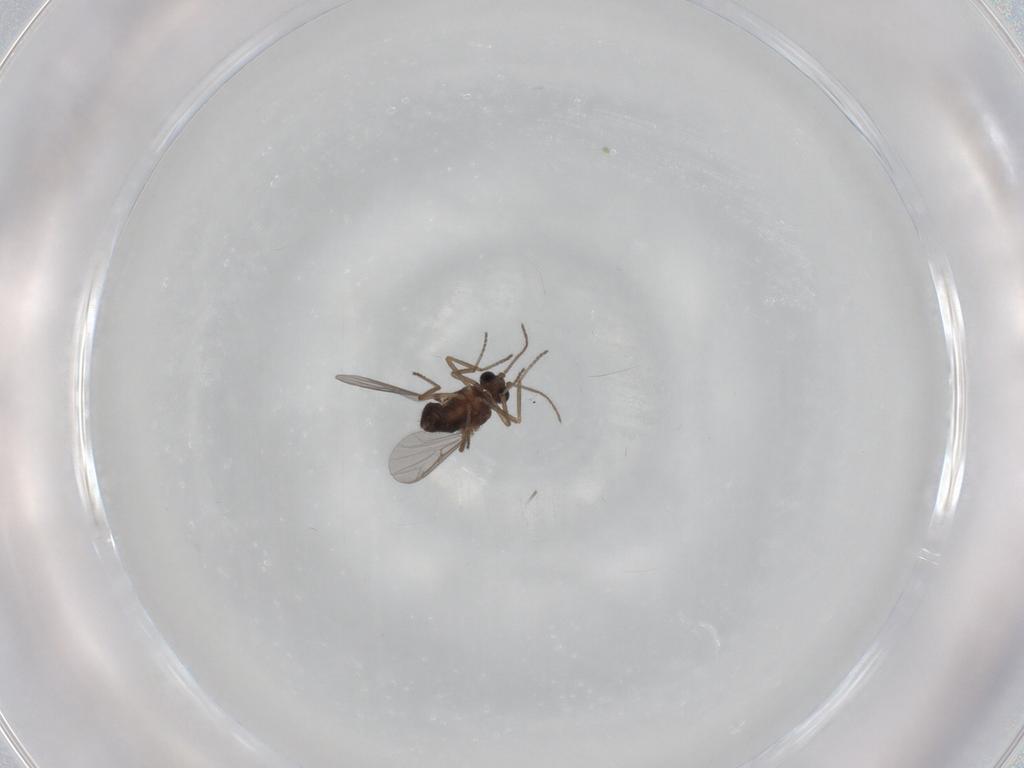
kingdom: Animalia
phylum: Arthropoda
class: Insecta
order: Diptera
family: Ceratopogonidae
